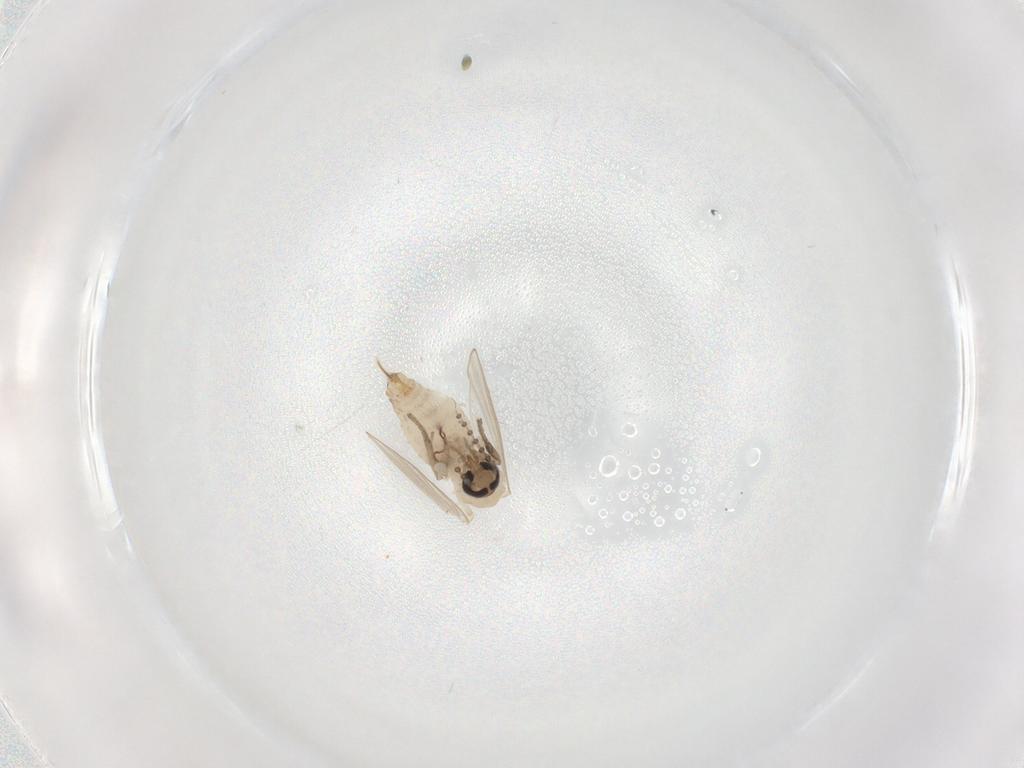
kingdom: Animalia
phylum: Arthropoda
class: Insecta
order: Diptera
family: Psychodidae
